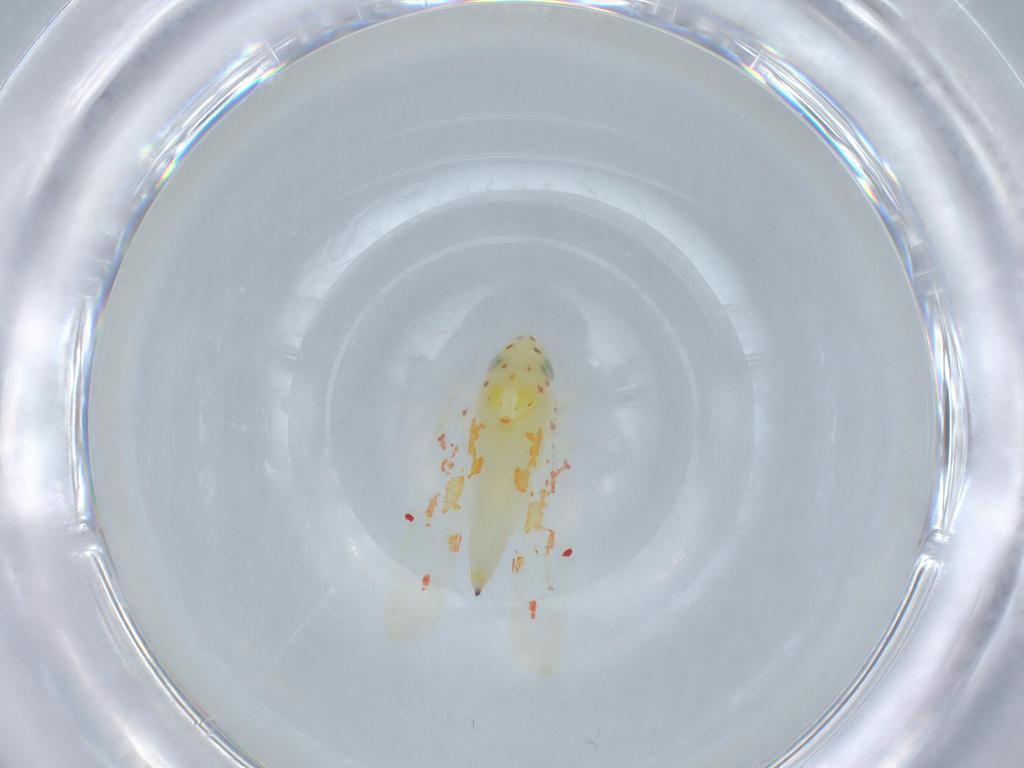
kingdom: Animalia
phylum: Arthropoda
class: Insecta
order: Hemiptera
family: Cicadellidae
